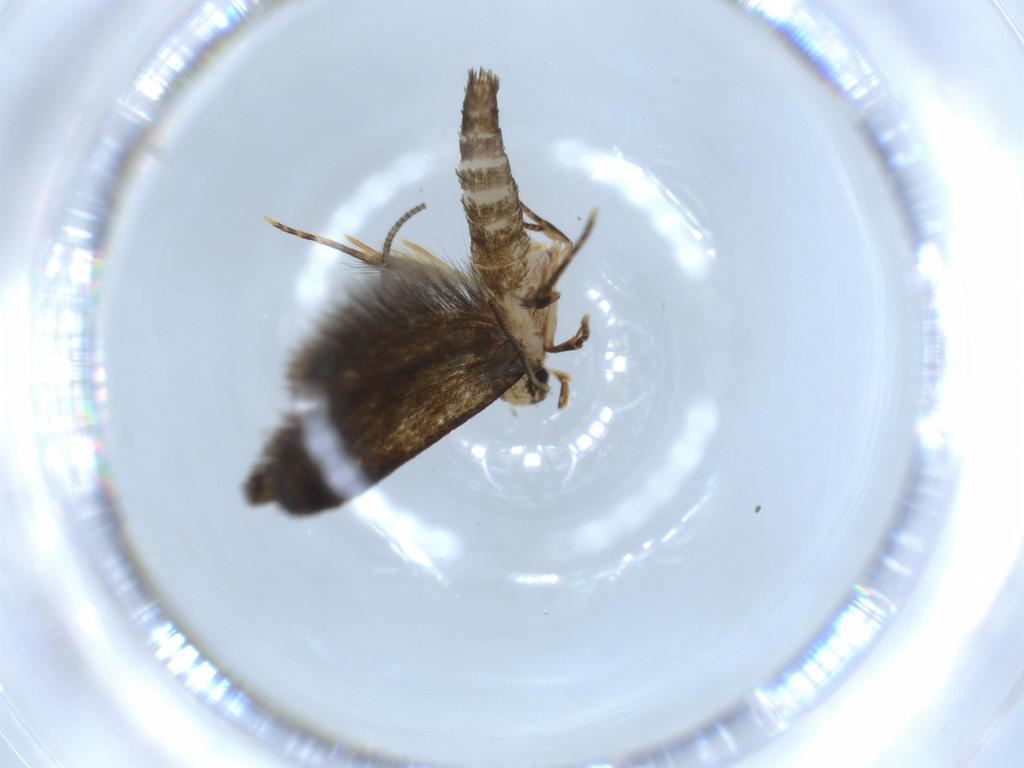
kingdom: Animalia
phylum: Arthropoda
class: Insecta
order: Lepidoptera
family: Tineidae
